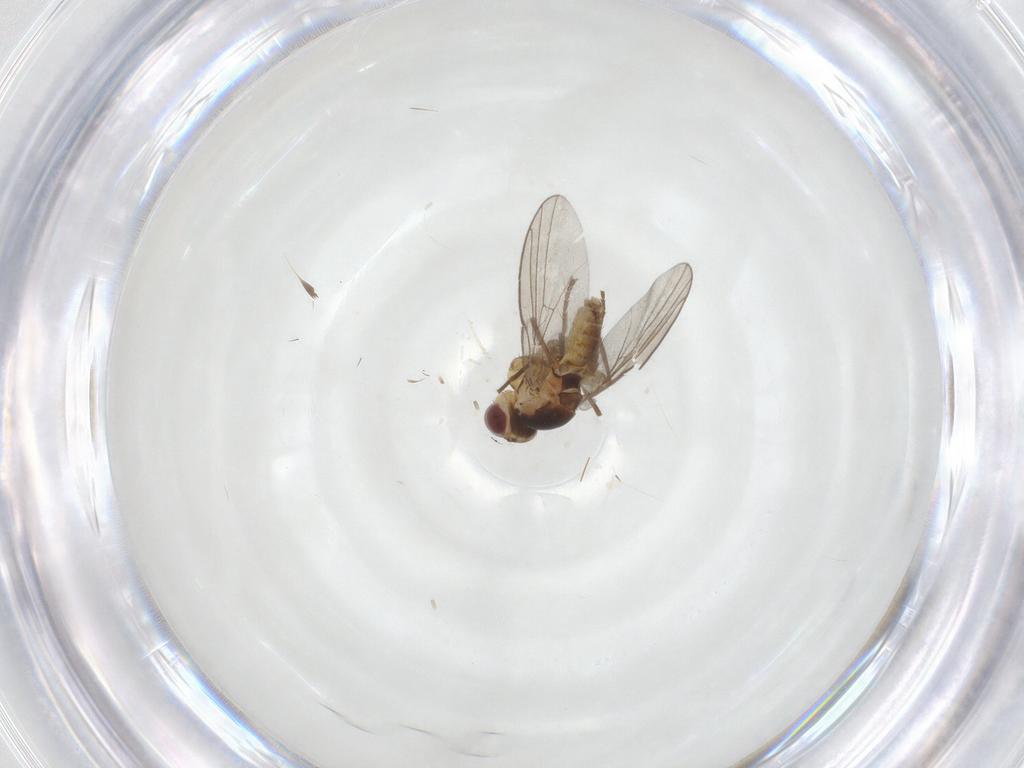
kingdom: Animalia
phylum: Arthropoda
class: Insecta
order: Diptera
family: Agromyzidae
